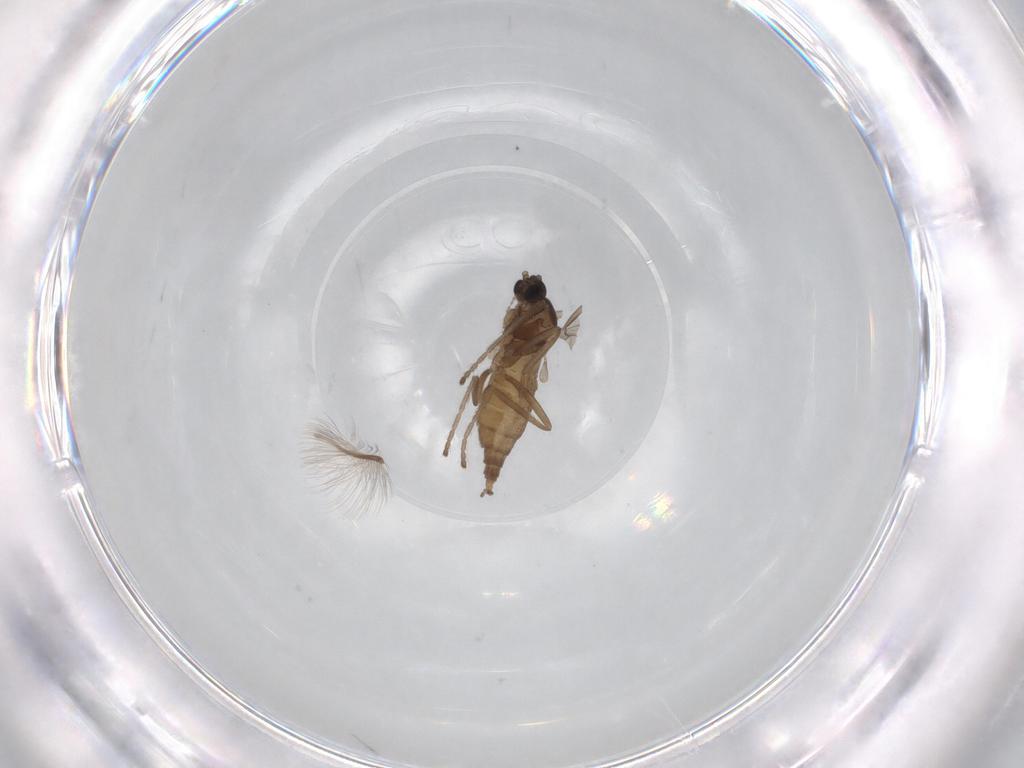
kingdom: Animalia
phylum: Arthropoda
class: Insecta
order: Diptera
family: Cecidomyiidae
